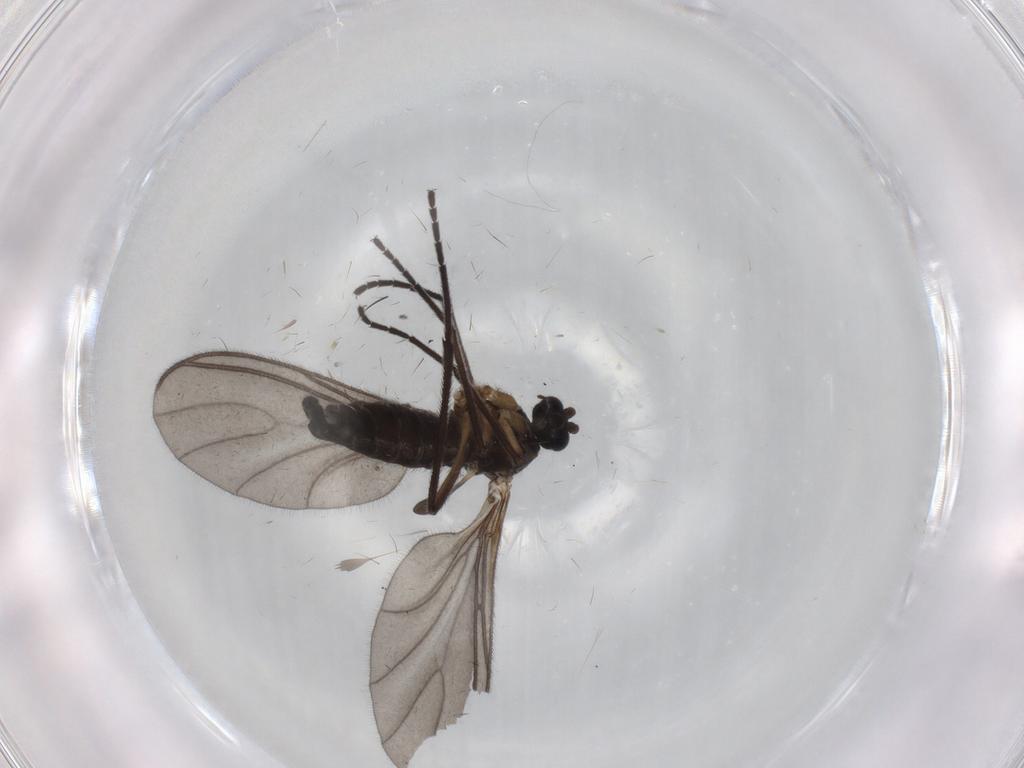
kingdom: Animalia
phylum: Arthropoda
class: Insecta
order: Diptera
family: Sciaridae
